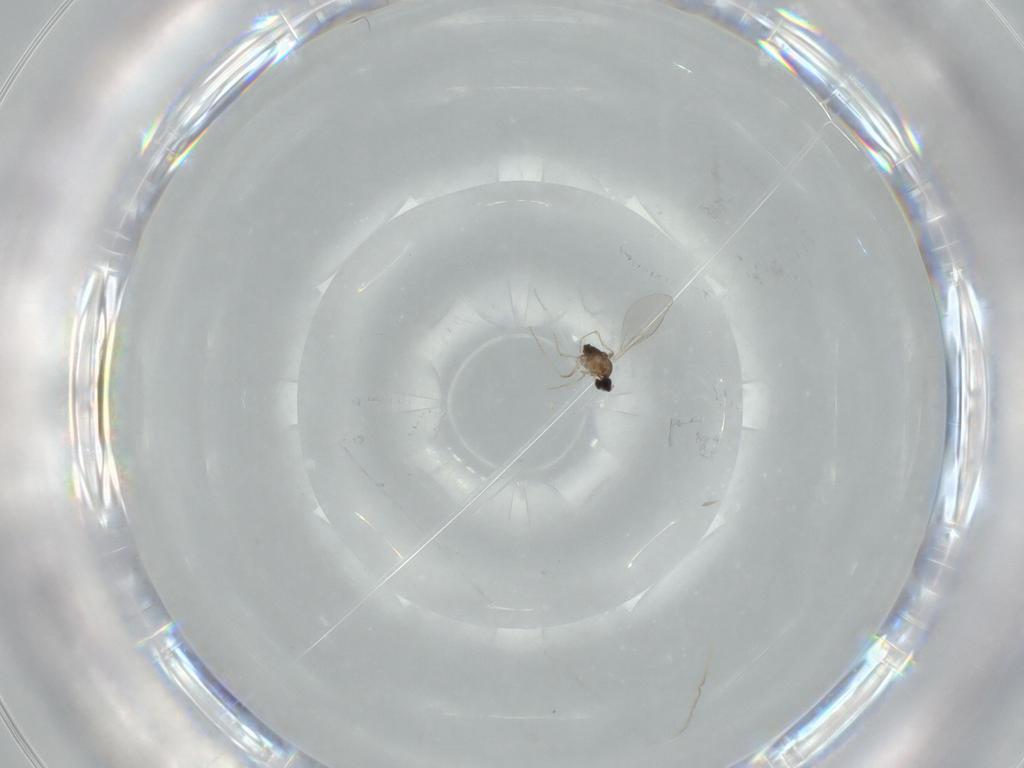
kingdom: Animalia
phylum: Arthropoda
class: Insecta
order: Diptera
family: Cecidomyiidae
